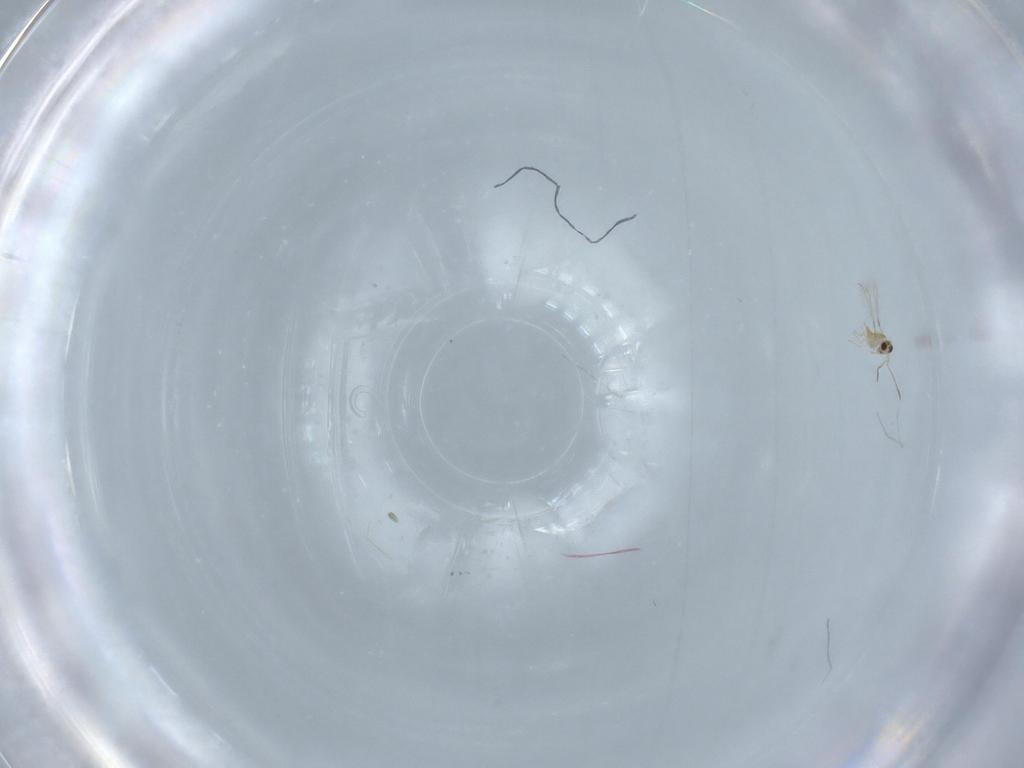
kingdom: Animalia
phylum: Arthropoda
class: Insecta
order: Hymenoptera
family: Mymaridae
